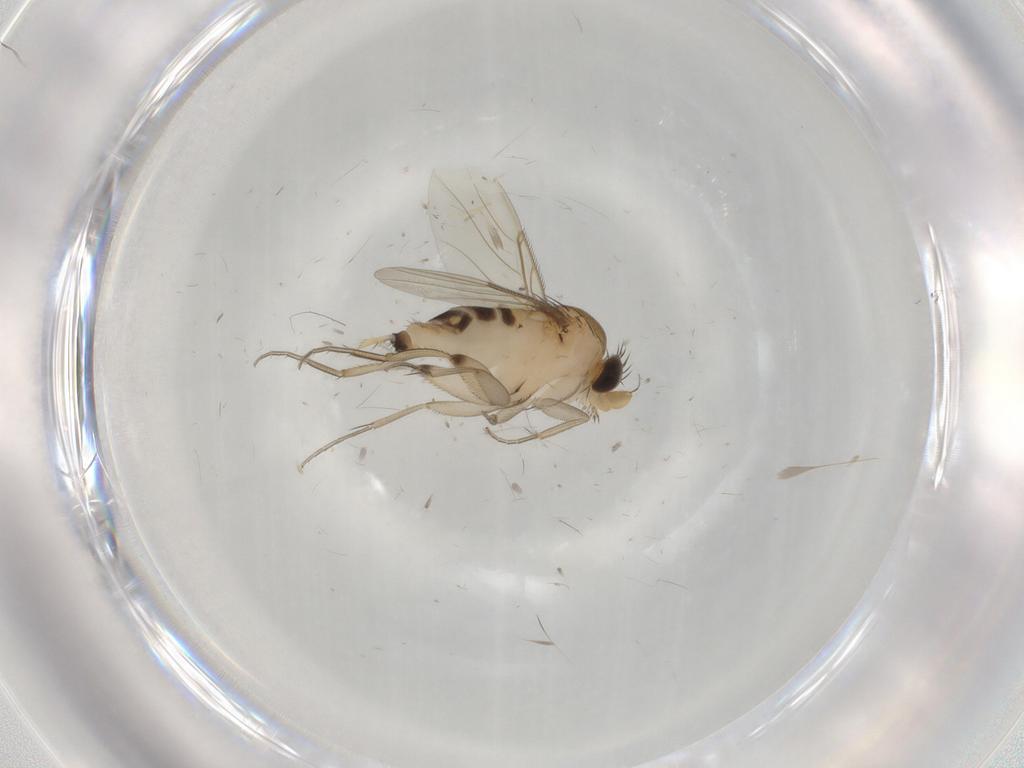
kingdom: Animalia
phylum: Arthropoda
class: Insecta
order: Diptera
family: Phoridae
